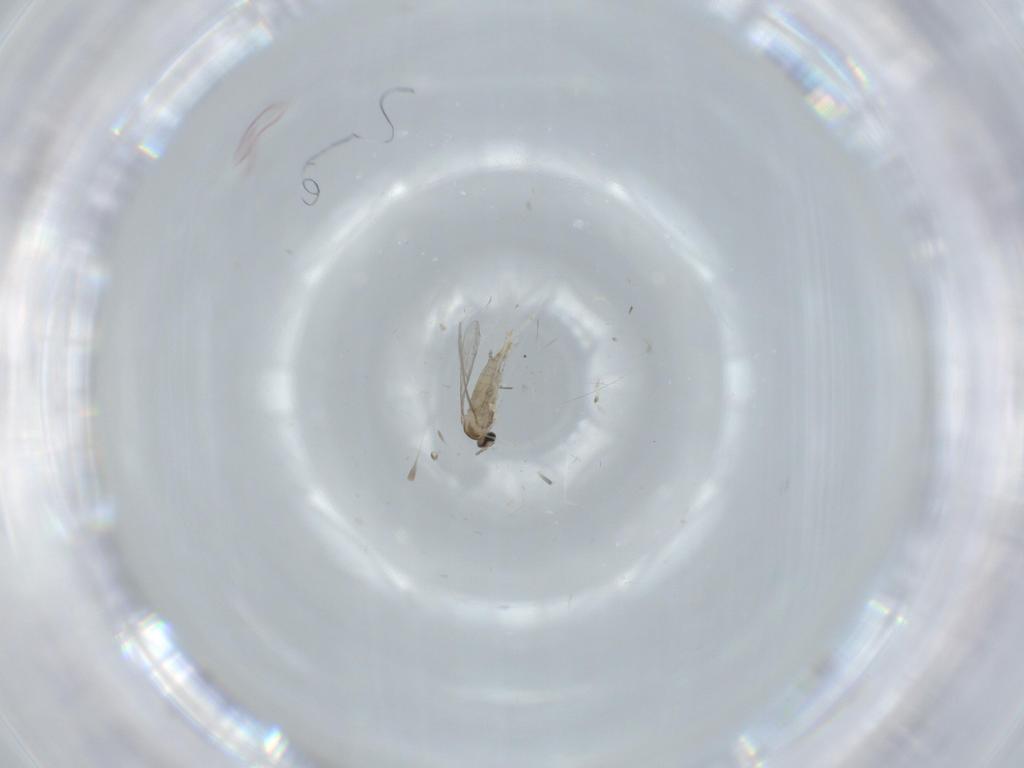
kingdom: Animalia
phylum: Arthropoda
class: Insecta
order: Diptera
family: Cecidomyiidae
